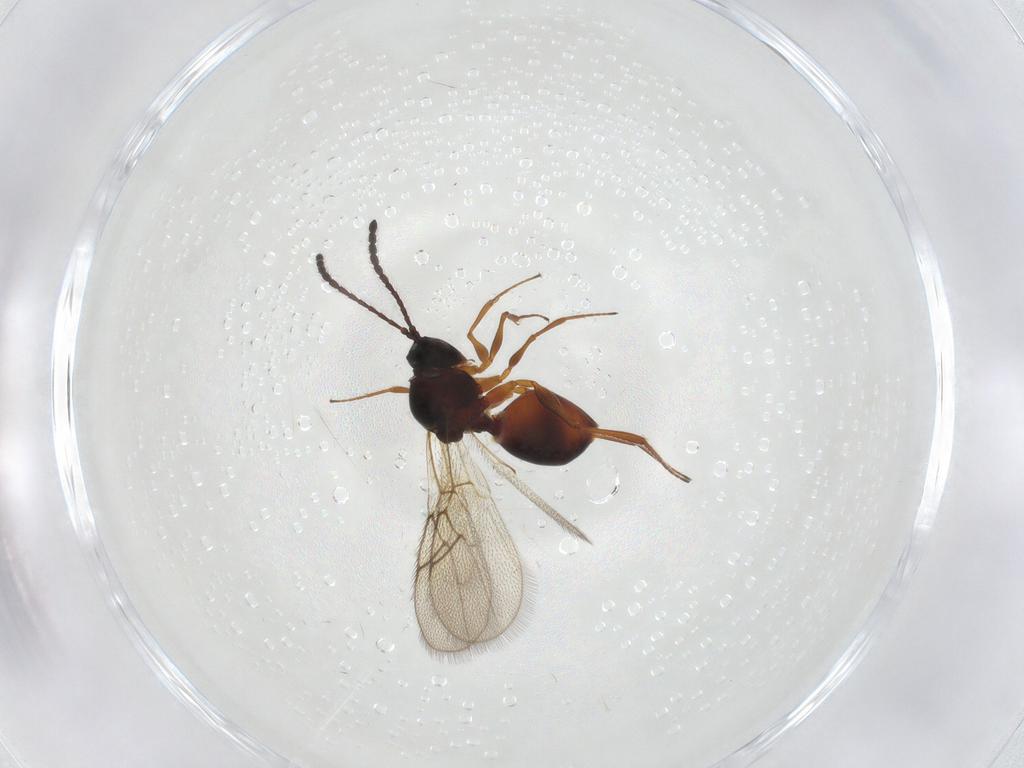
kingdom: Animalia
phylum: Arthropoda
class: Insecta
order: Hymenoptera
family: Figitidae
